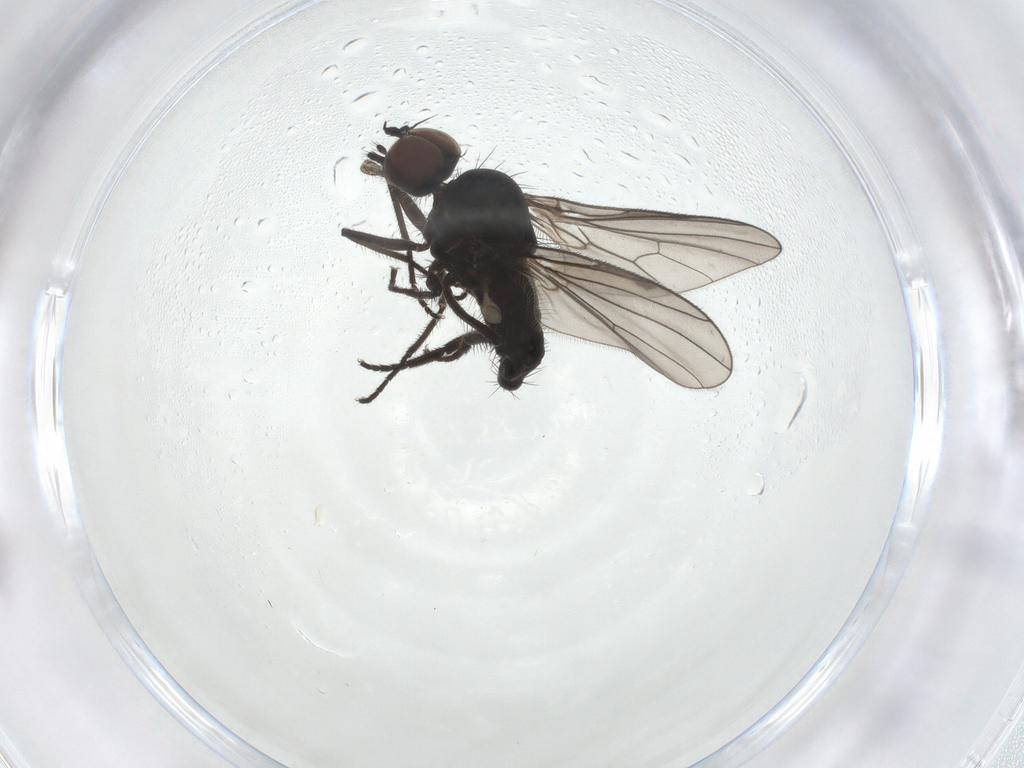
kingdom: Animalia
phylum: Arthropoda
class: Insecta
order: Diptera
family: Dolichopodidae
